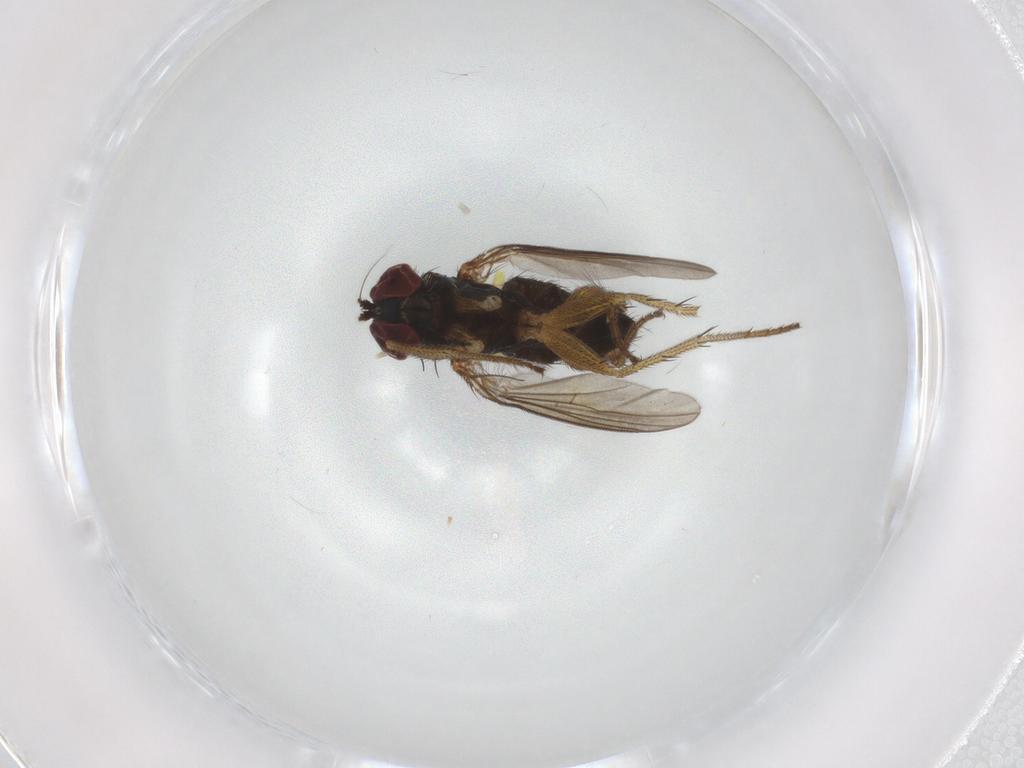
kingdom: Animalia
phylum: Arthropoda
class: Insecta
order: Diptera
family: Dolichopodidae
